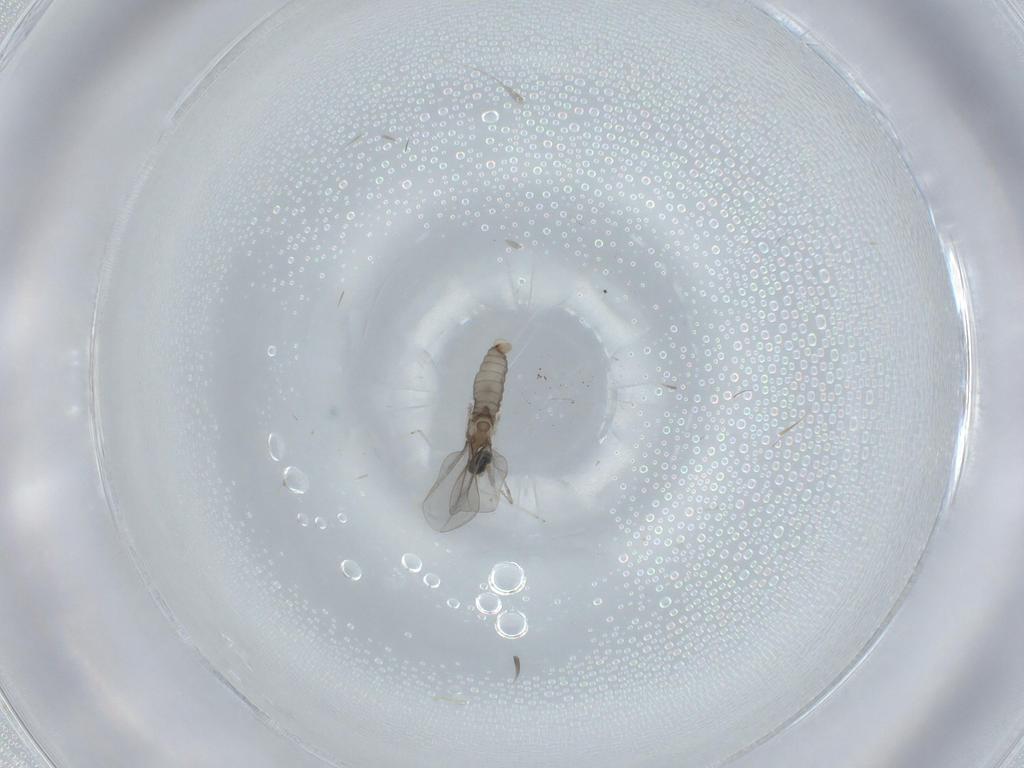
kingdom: Animalia
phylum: Arthropoda
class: Insecta
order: Diptera
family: Cecidomyiidae
